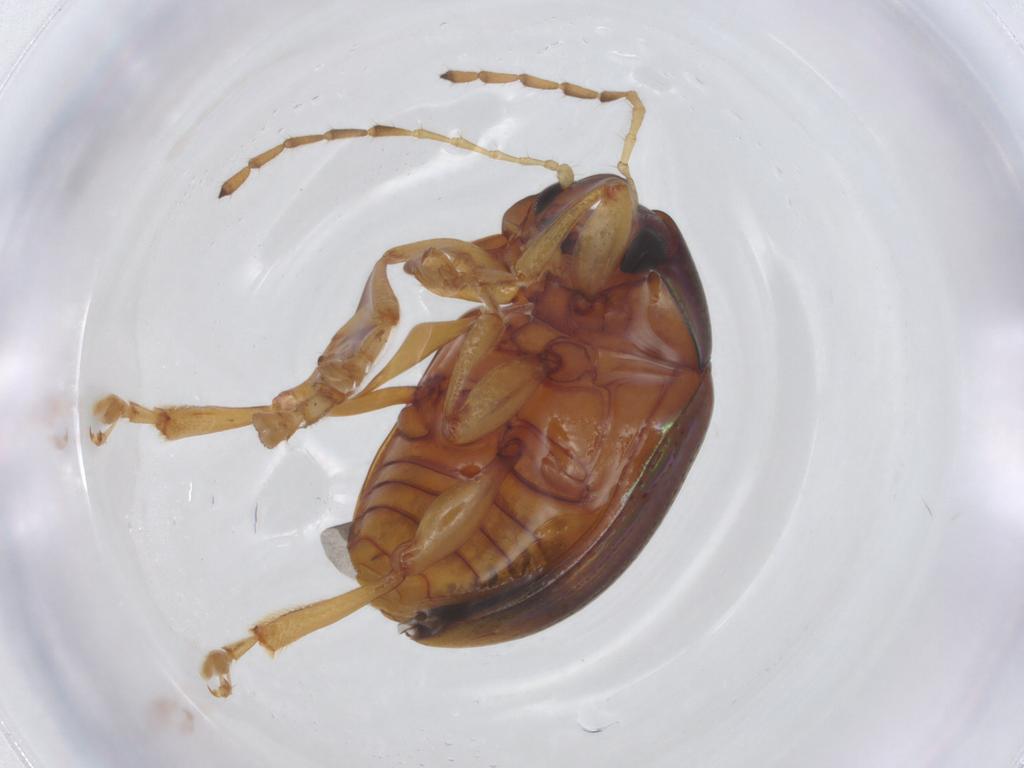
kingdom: Animalia
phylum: Arthropoda
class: Insecta
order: Coleoptera
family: Chrysomelidae
